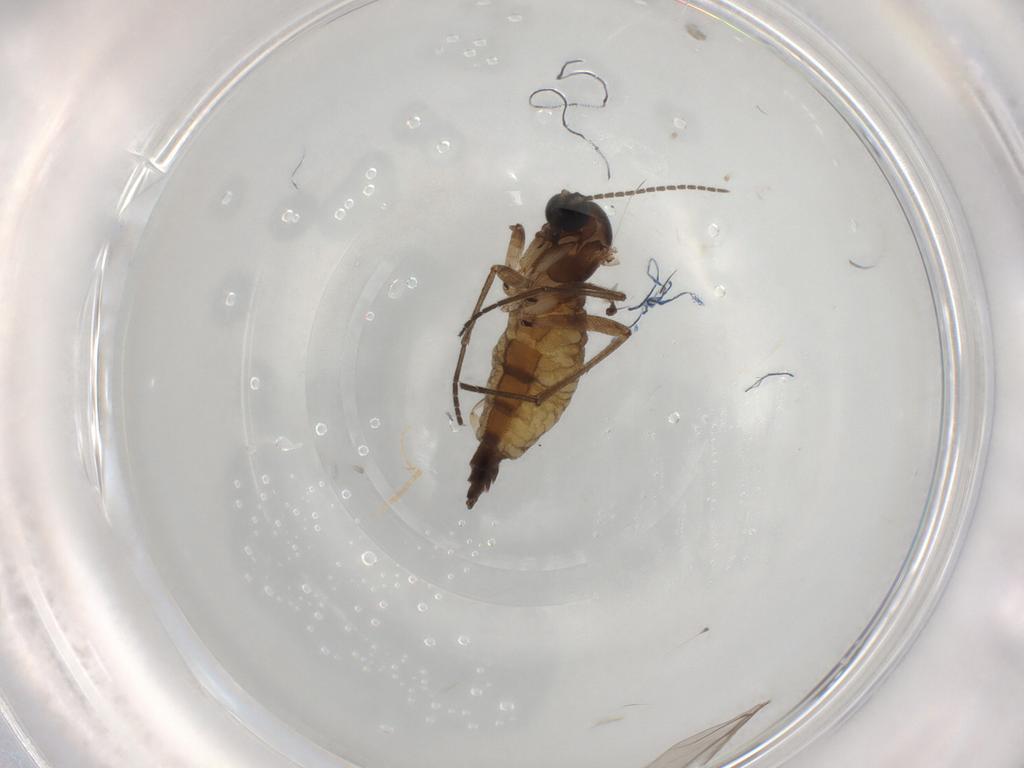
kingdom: Animalia
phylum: Arthropoda
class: Insecta
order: Diptera
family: Sciaridae
